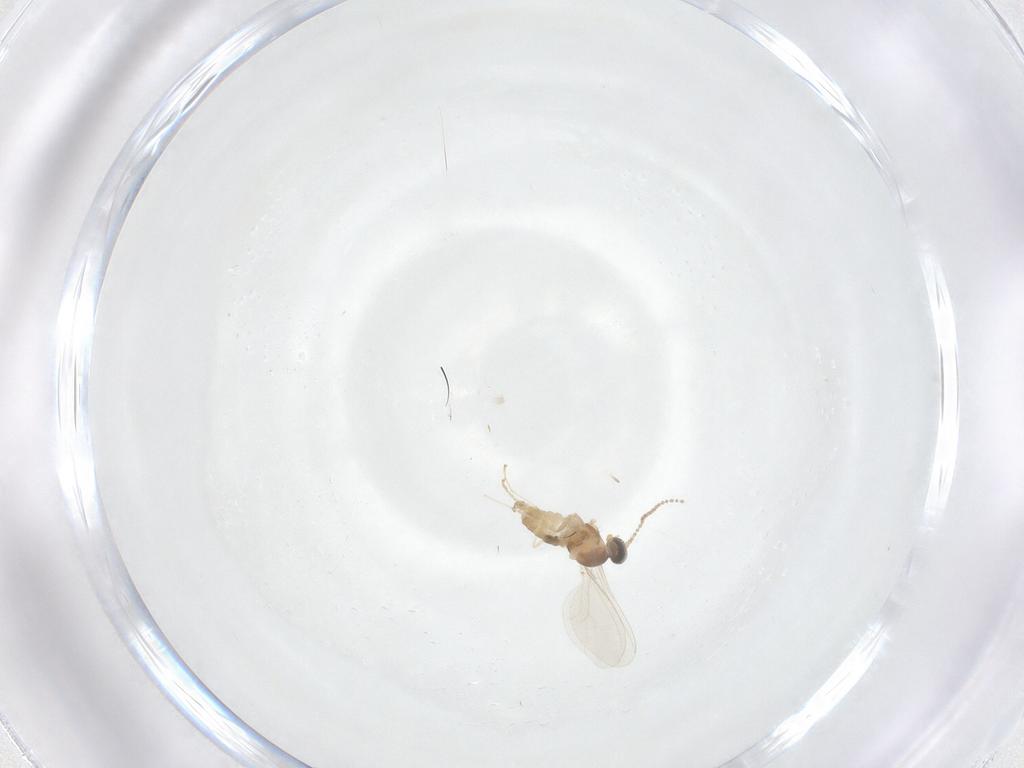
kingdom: Animalia
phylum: Arthropoda
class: Insecta
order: Diptera
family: Cecidomyiidae
